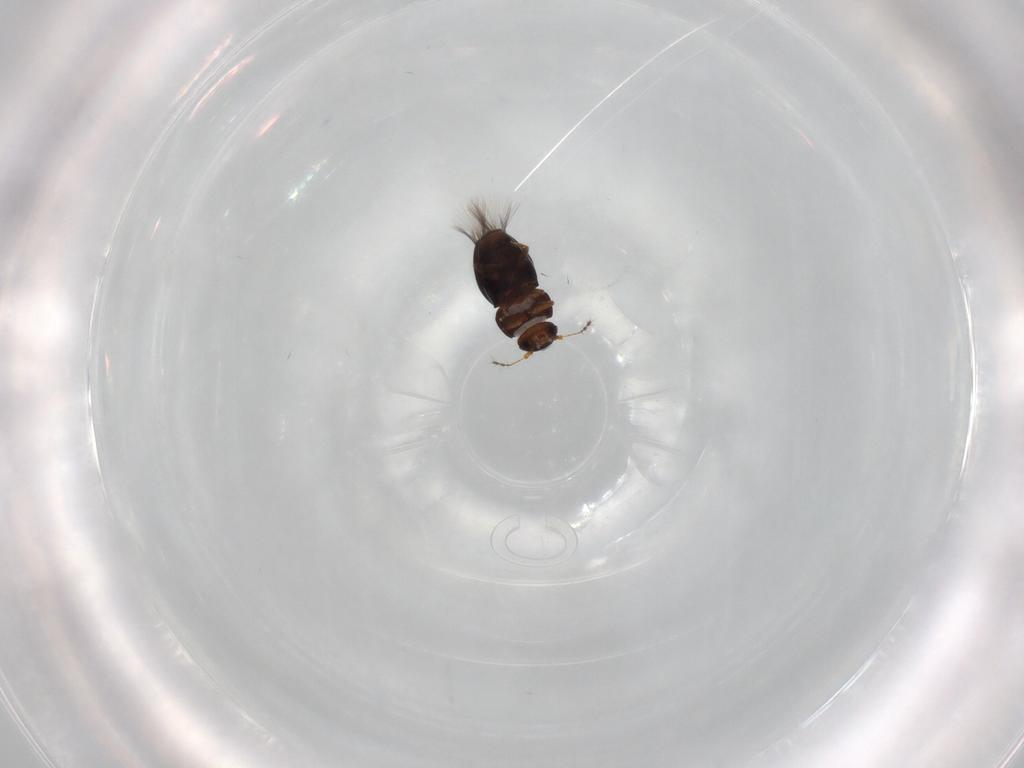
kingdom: Animalia
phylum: Arthropoda
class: Insecta
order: Coleoptera
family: Ptiliidae
